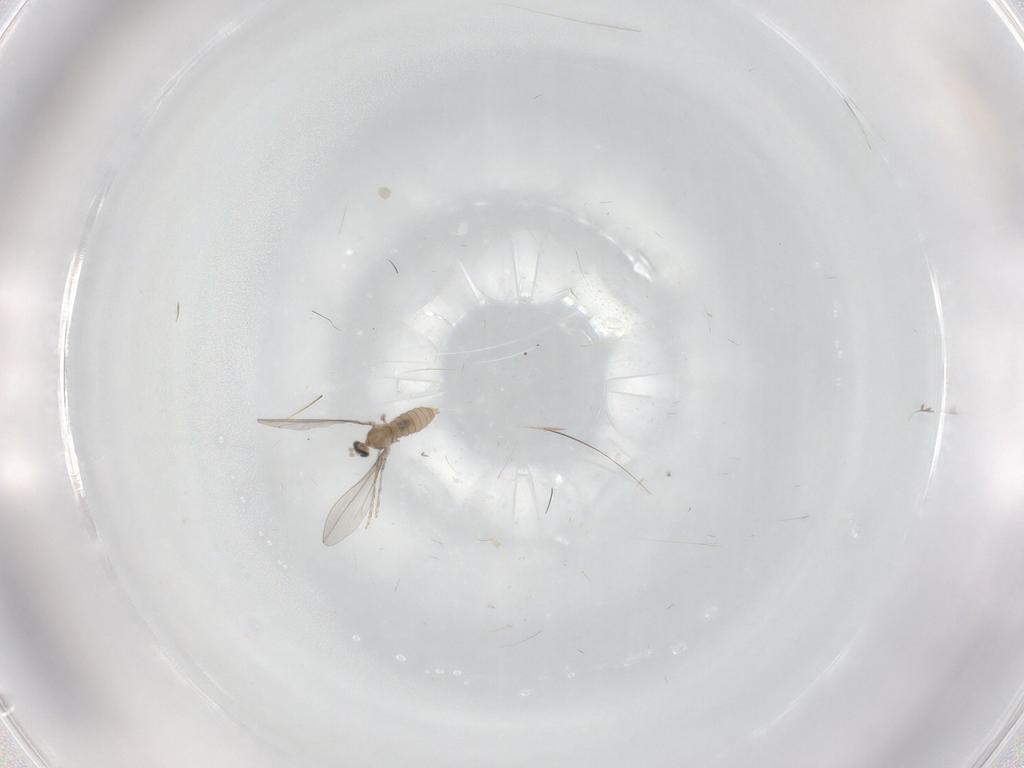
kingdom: Animalia
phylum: Arthropoda
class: Insecta
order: Diptera
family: Cecidomyiidae
